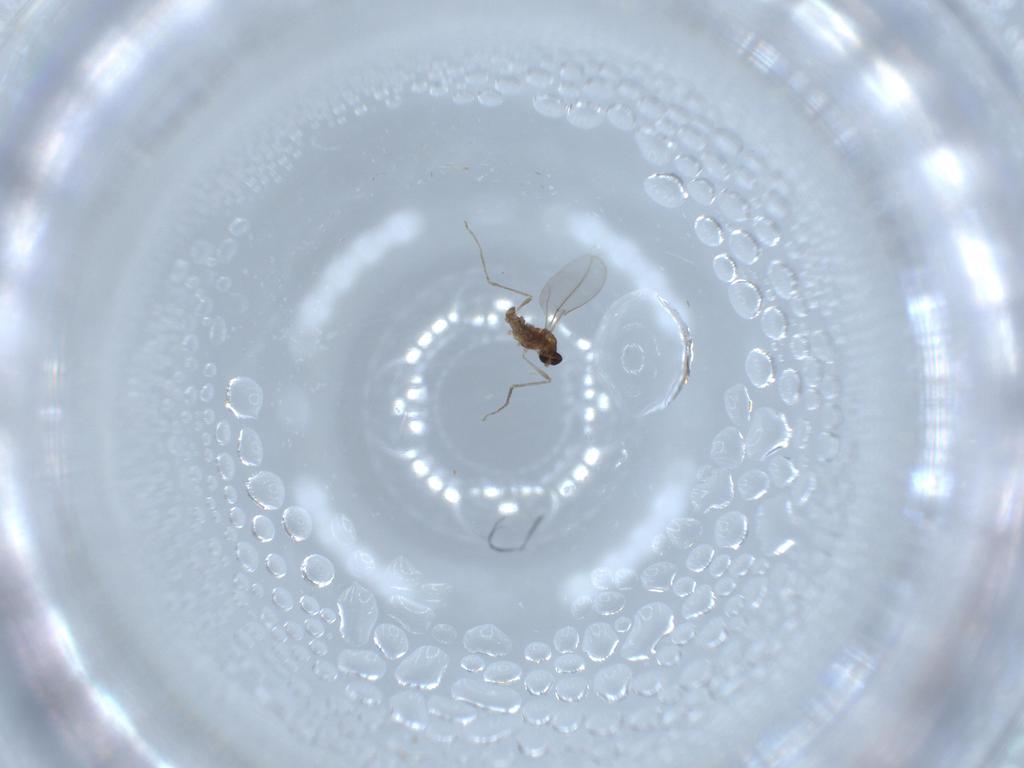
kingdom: Animalia
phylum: Arthropoda
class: Insecta
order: Diptera
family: Cecidomyiidae
